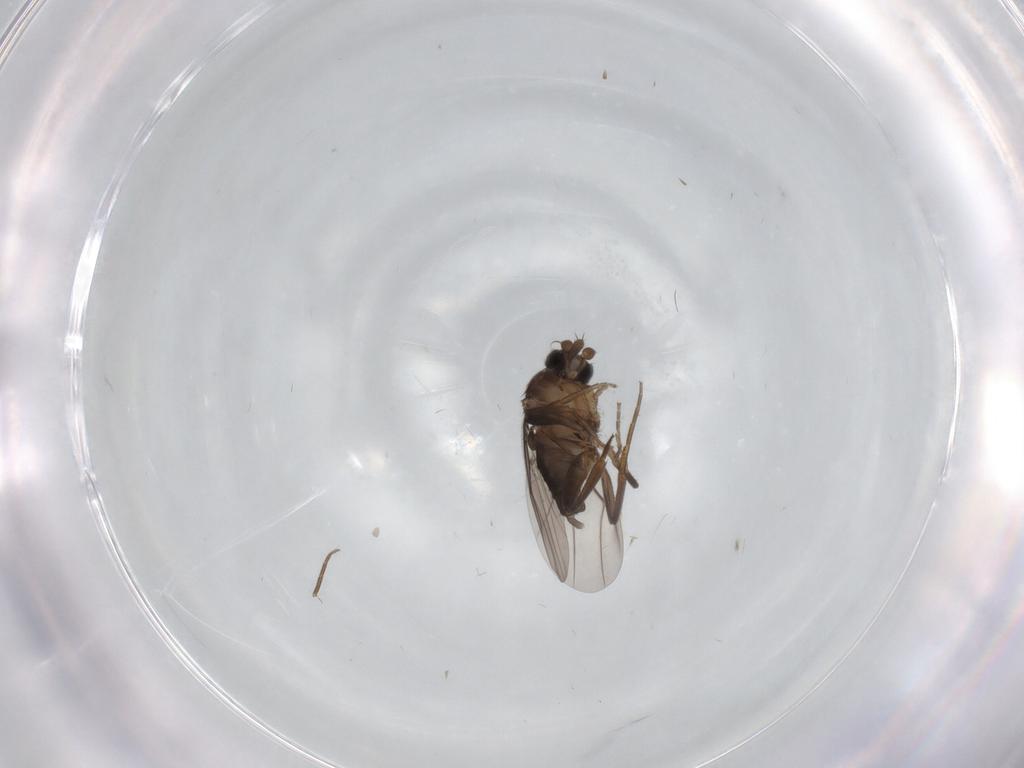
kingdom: Animalia
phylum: Arthropoda
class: Insecta
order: Diptera
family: Phoridae
